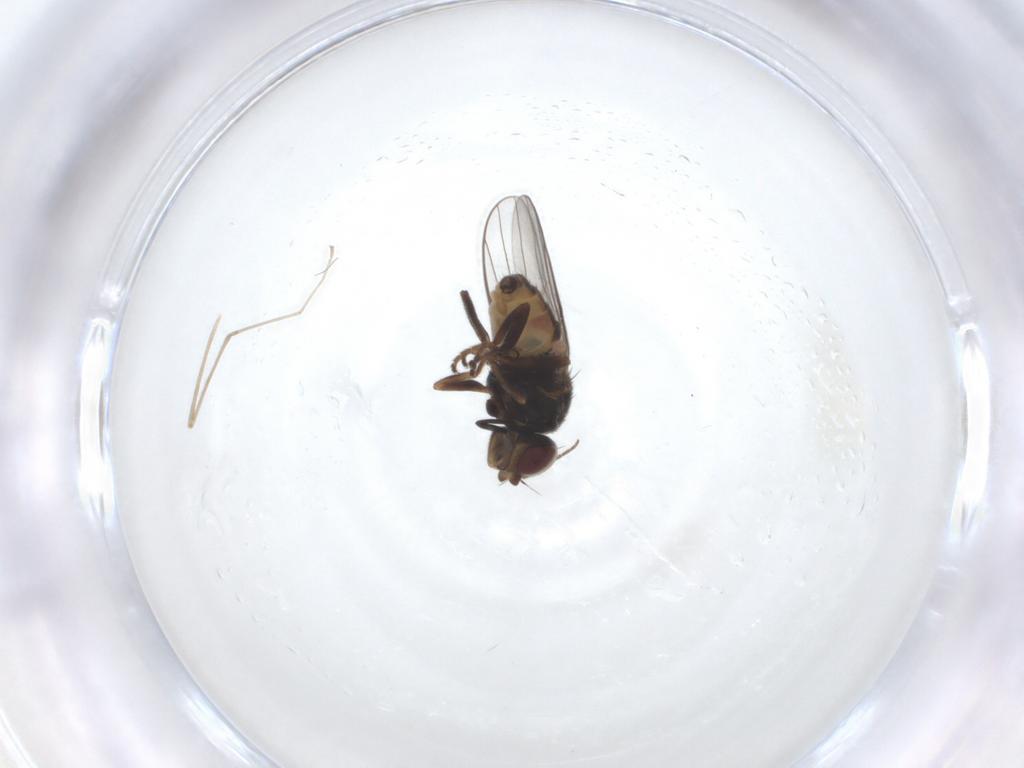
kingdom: Animalia
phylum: Arthropoda
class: Insecta
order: Diptera
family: Chloropidae
